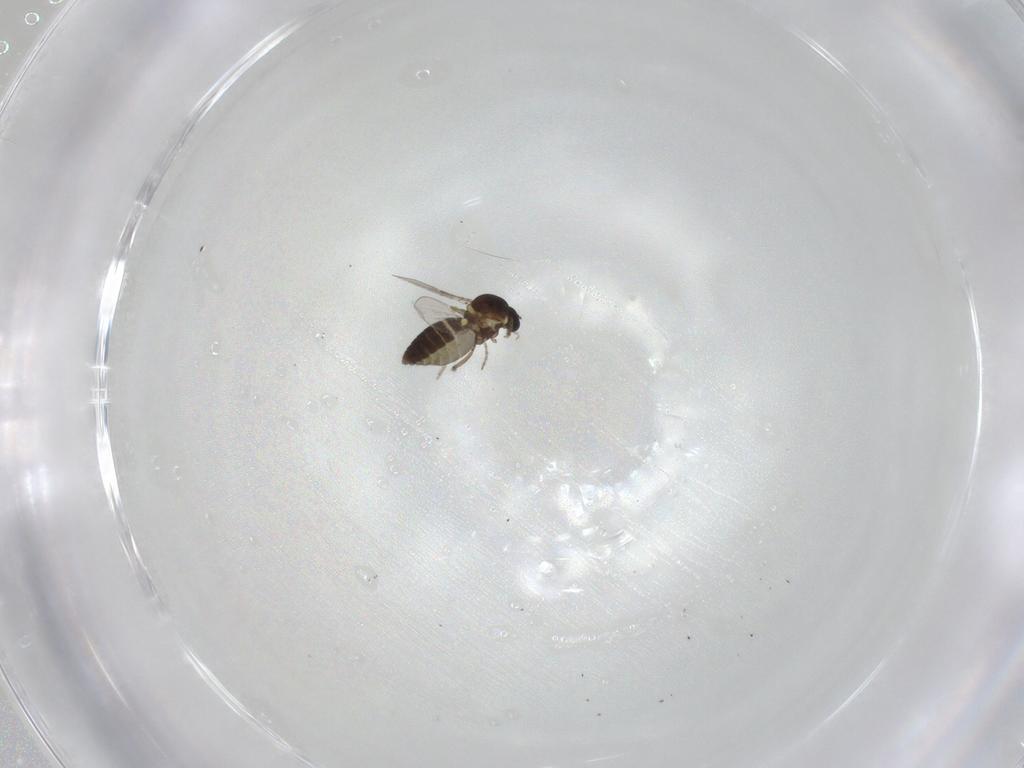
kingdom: Animalia
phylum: Arthropoda
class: Insecta
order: Diptera
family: Ceratopogonidae
